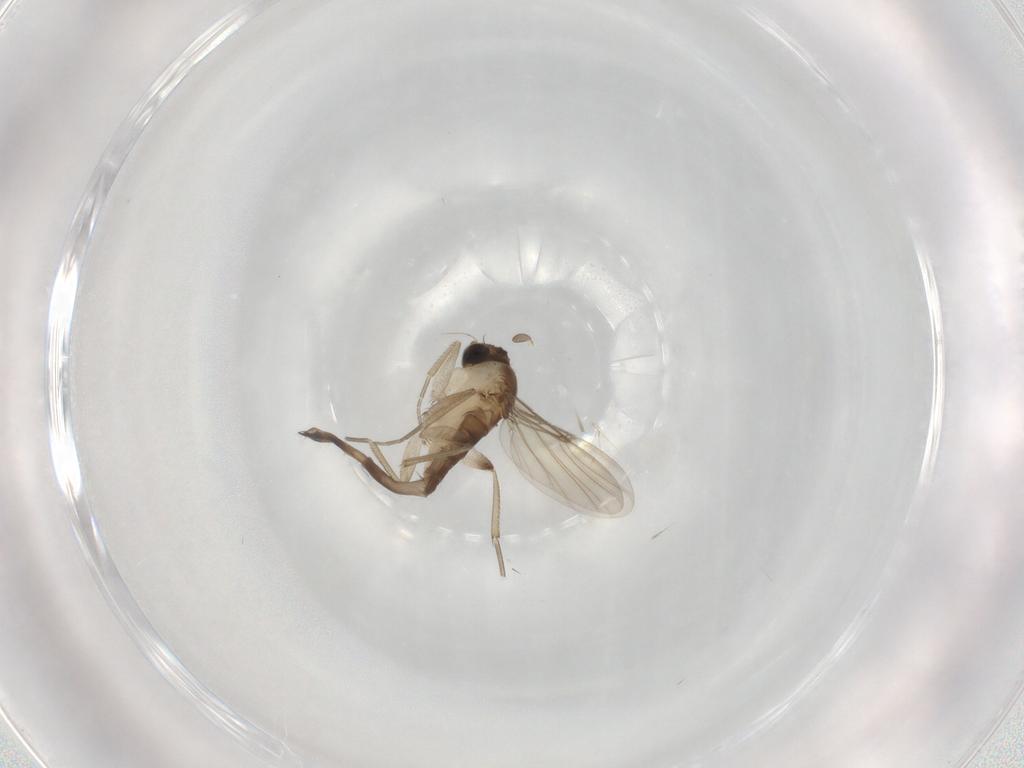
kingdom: Animalia
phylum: Arthropoda
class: Insecta
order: Diptera
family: Phoridae
